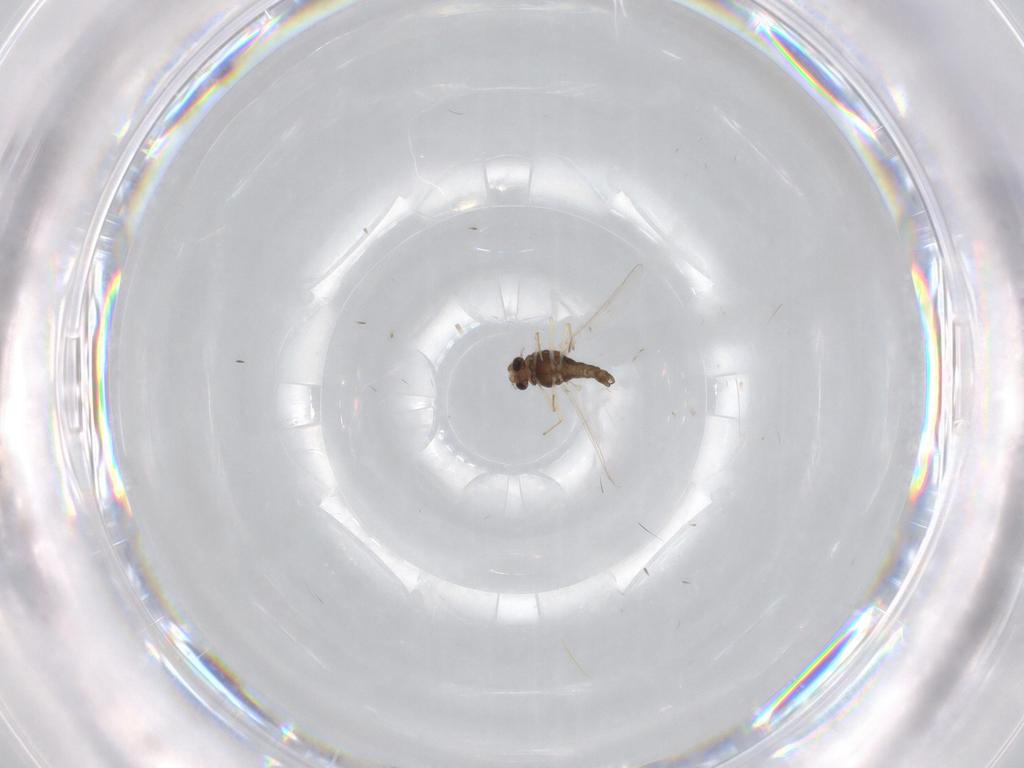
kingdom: Animalia
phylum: Arthropoda
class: Insecta
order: Diptera
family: Chironomidae
